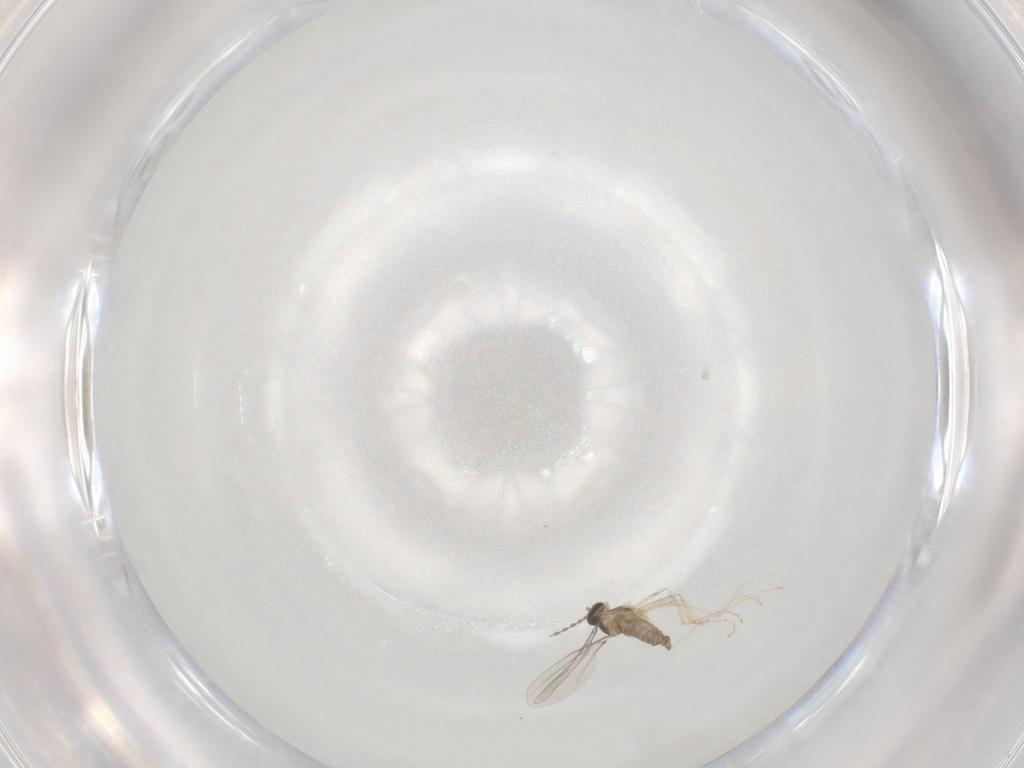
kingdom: Animalia
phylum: Arthropoda
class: Insecta
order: Diptera
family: Cecidomyiidae
